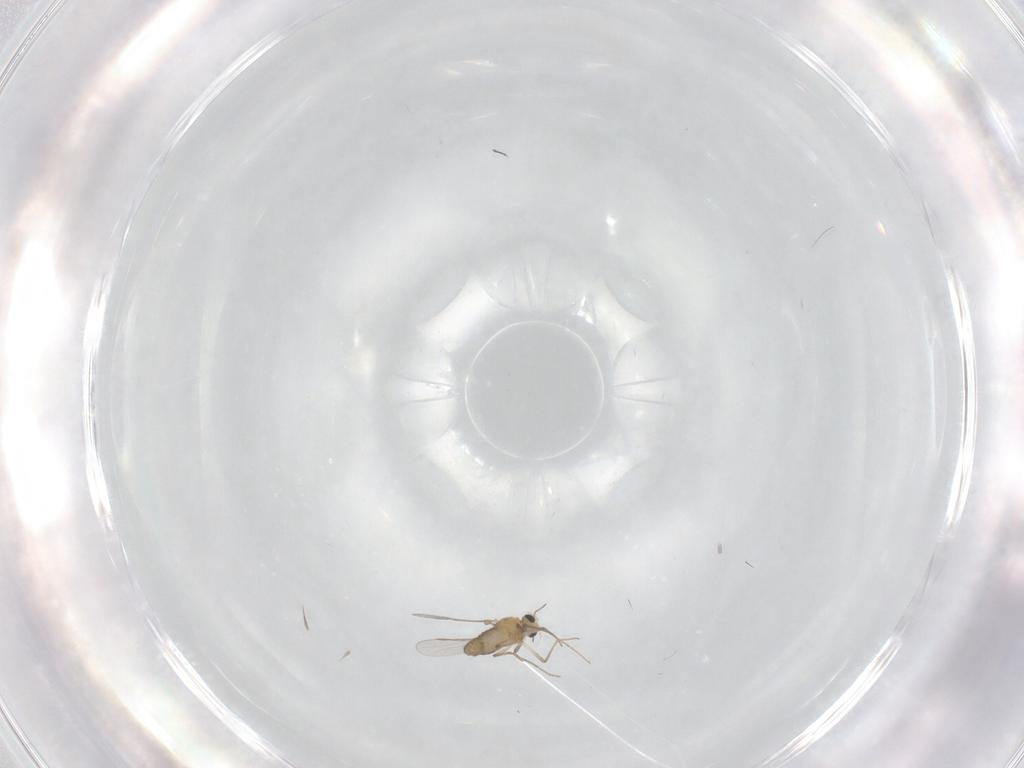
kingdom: Animalia
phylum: Arthropoda
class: Insecta
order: Diptera
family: Chironomidae
